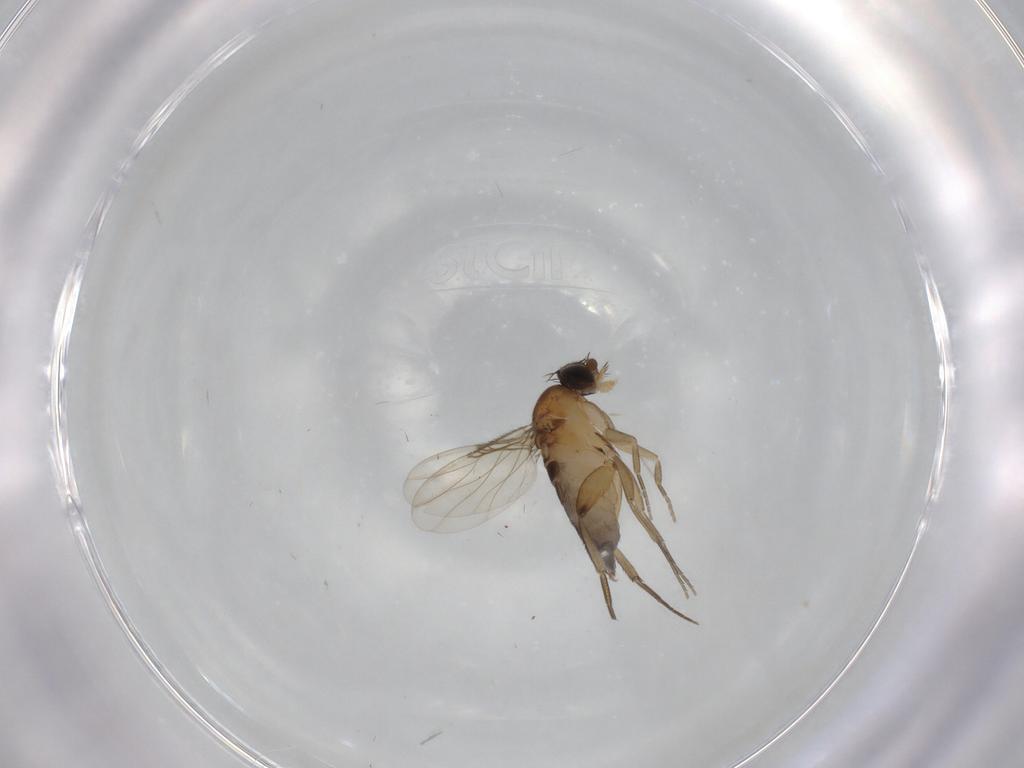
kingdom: Animalia
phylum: Arthropoda
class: Insecta
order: Diptera
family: Phoridae
